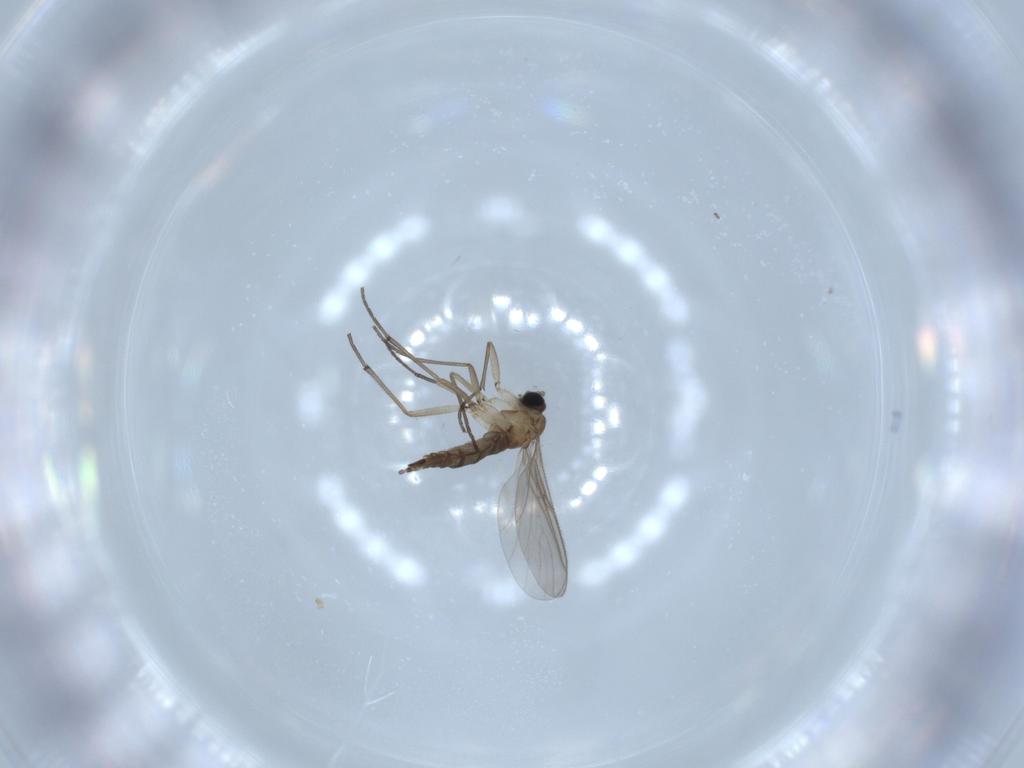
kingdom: Animalia
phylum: Arthropoda
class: Insecta
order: Diptera
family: Sciaridae
